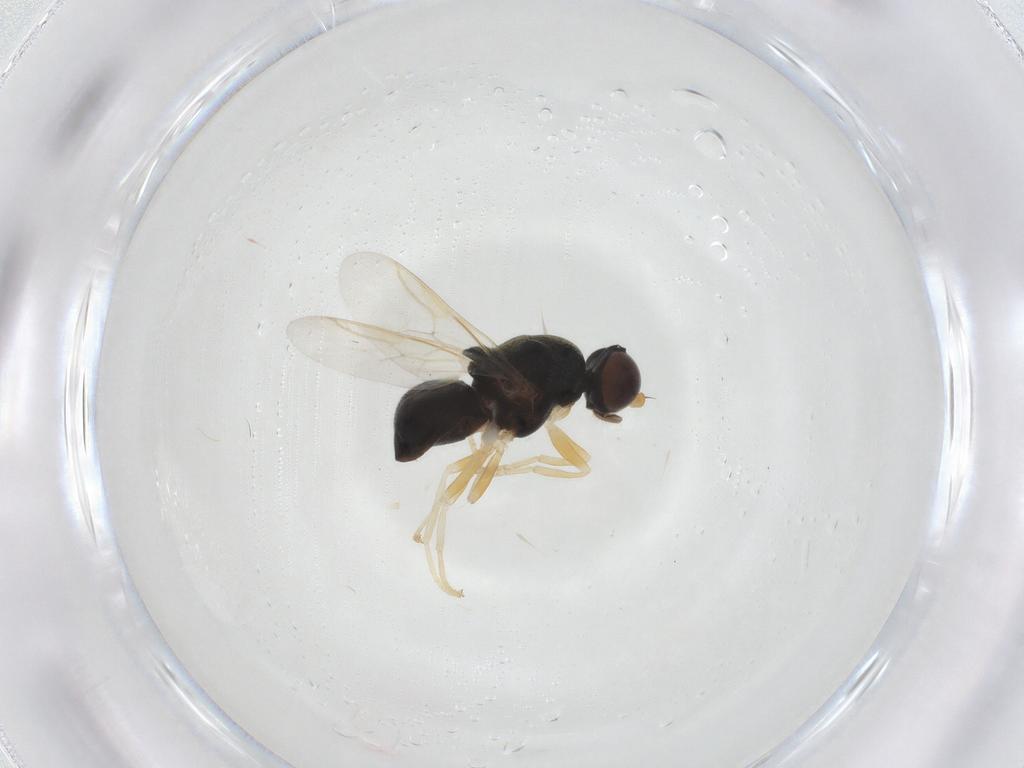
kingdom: Animalia
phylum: Arthropoda
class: Insecta
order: Diptera
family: Stratiomyidae
